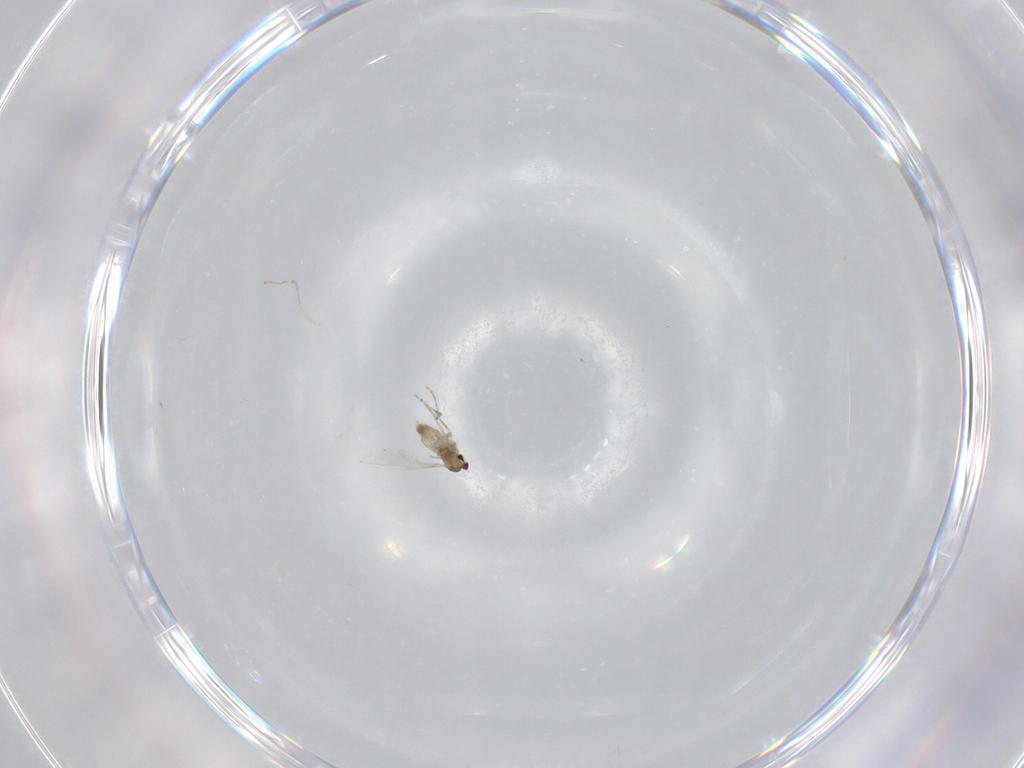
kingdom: Animalia
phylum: Arthropoda
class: Insecta
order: Diptera
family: Cecidomyiidae
